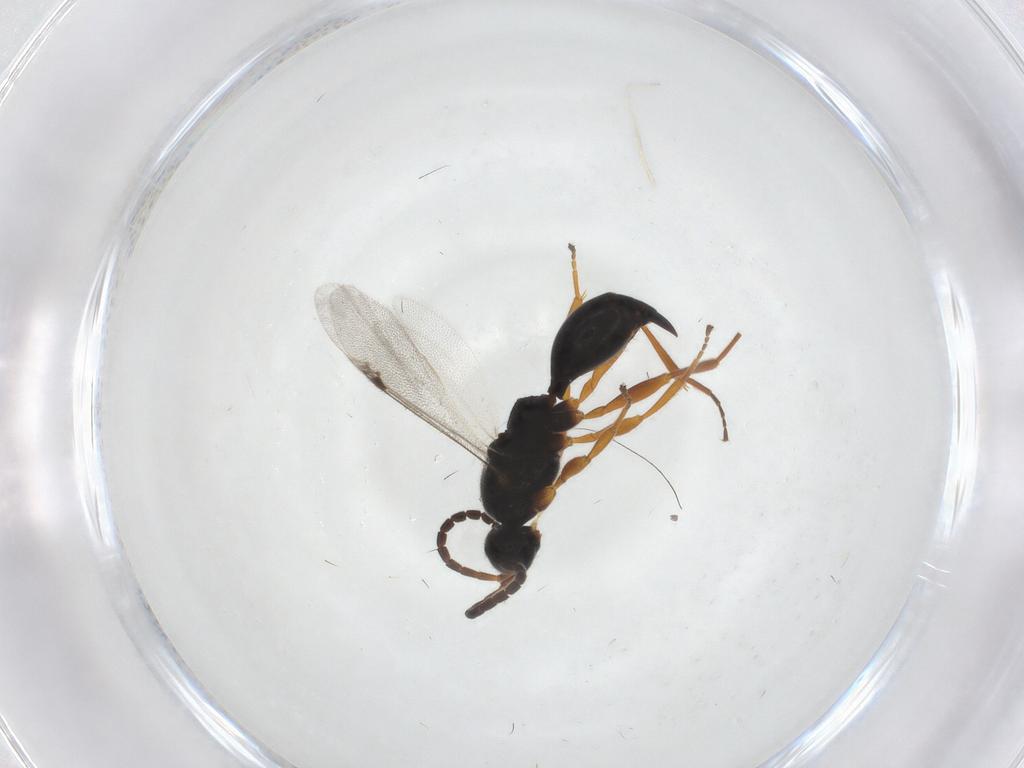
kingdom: Animalia
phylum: Arthropoda
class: Insecta
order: Hymenoptera
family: Proctotrupidae
